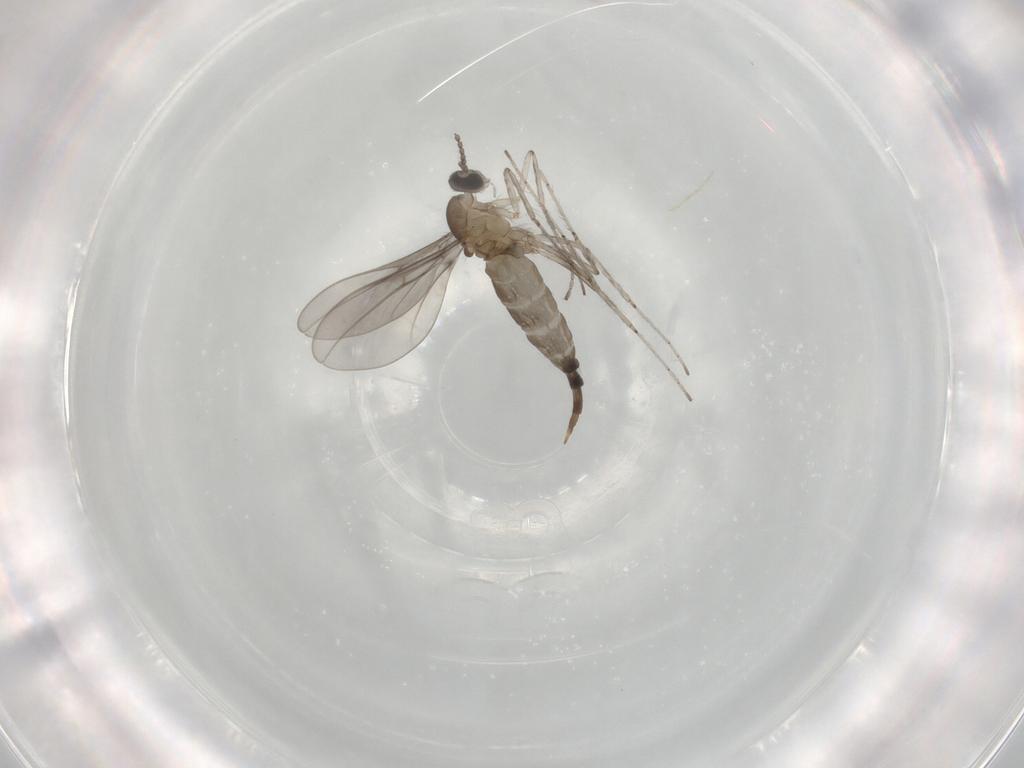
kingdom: Animalia
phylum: Arthropoda
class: Insecta
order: Diptera
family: Cecidomyiidae
